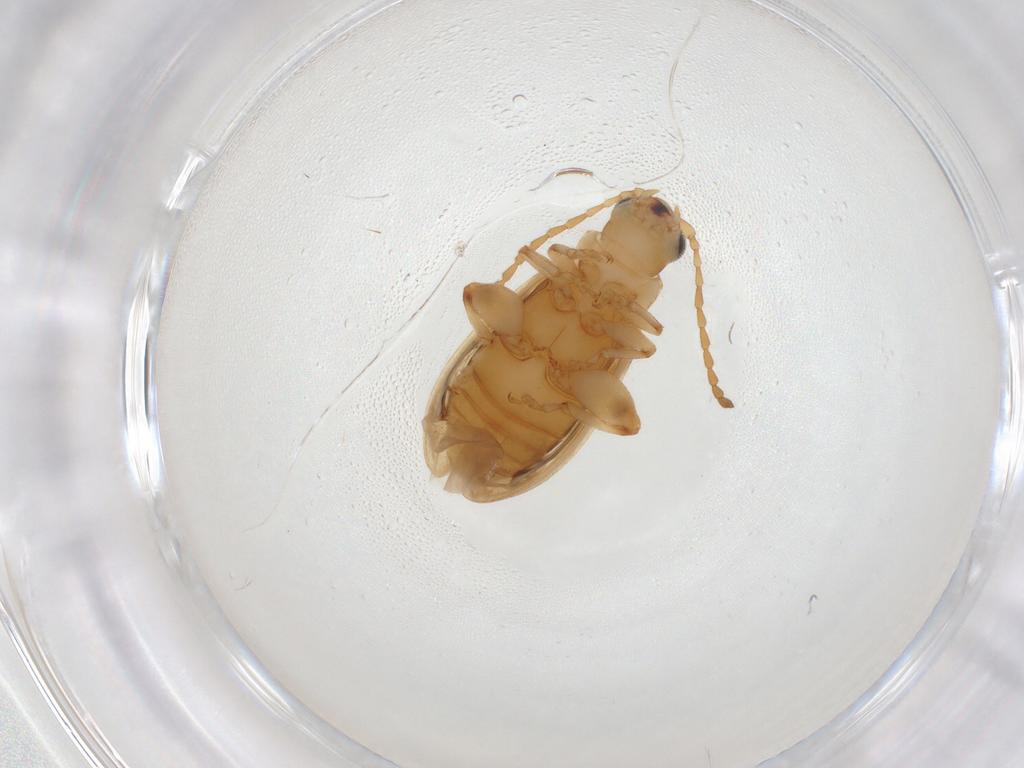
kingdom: Animalia
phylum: Arthropoda
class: Insecta
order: Coleoptera
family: Chrysomelidae
